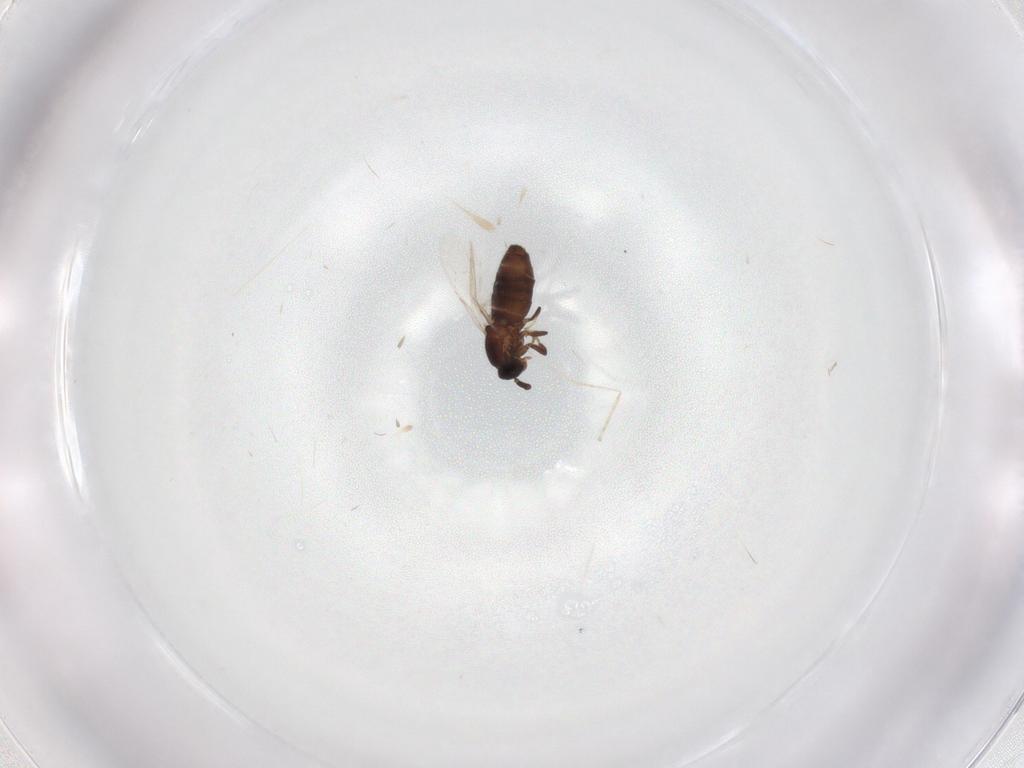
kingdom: Animalia
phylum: Arthropoda
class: Insecta
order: Diptera
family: Scatopsidae
